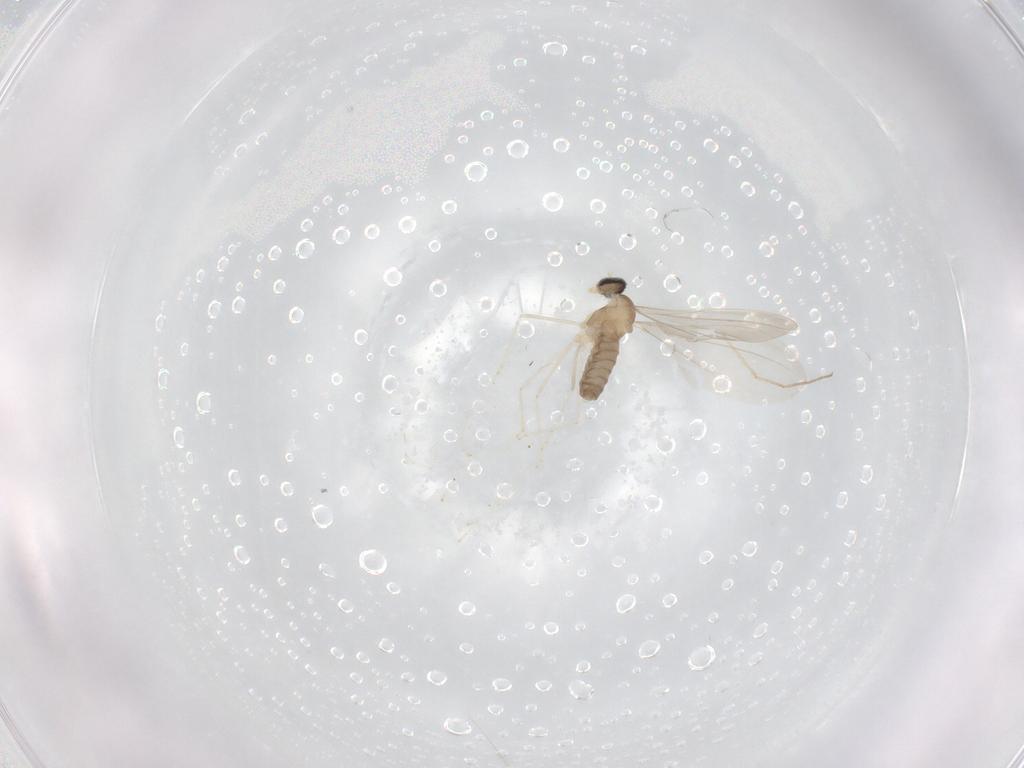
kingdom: Animalia
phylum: Arthropoda
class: Insecta
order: Diptera
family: Cecidomyiidae
